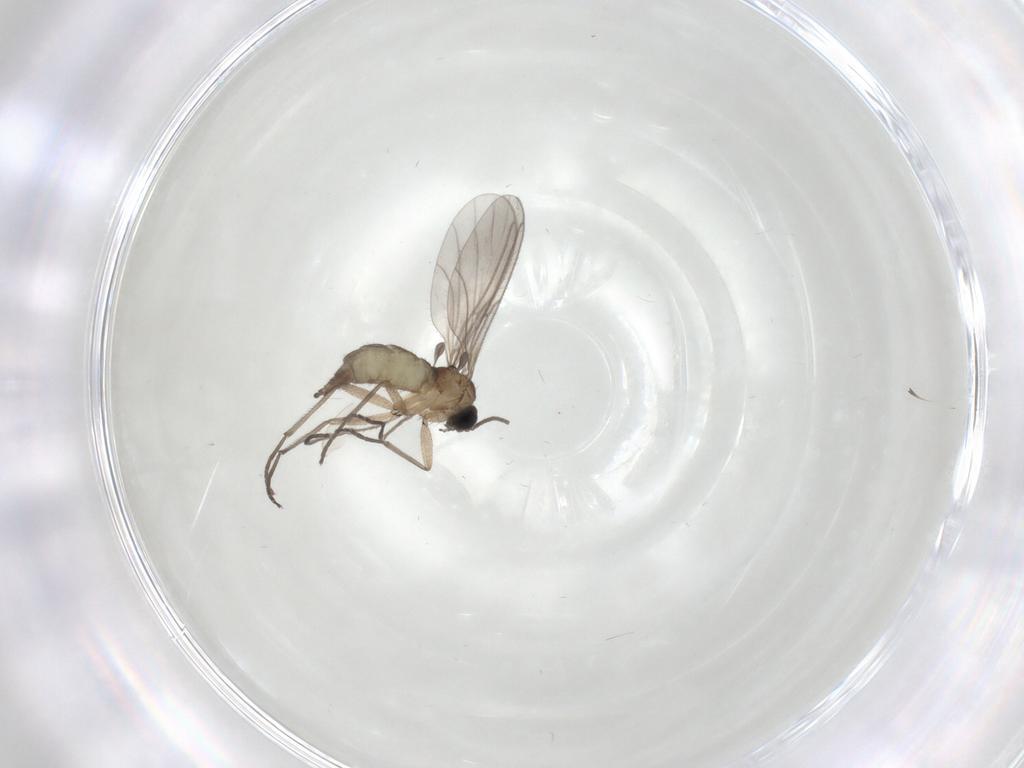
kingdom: Animalia
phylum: Arthropoda
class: Insecta
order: Diptera
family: Sciaridae
